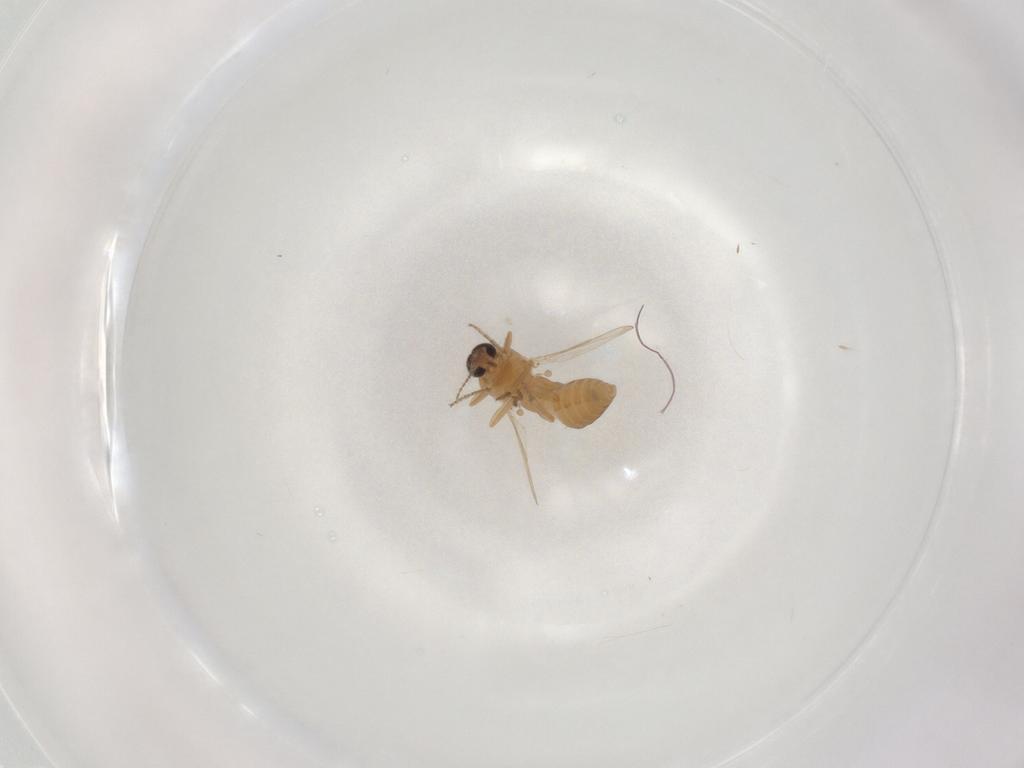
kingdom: Animalia
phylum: Arthropoda
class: Insecta
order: Diptera
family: Ceratopogonidae
